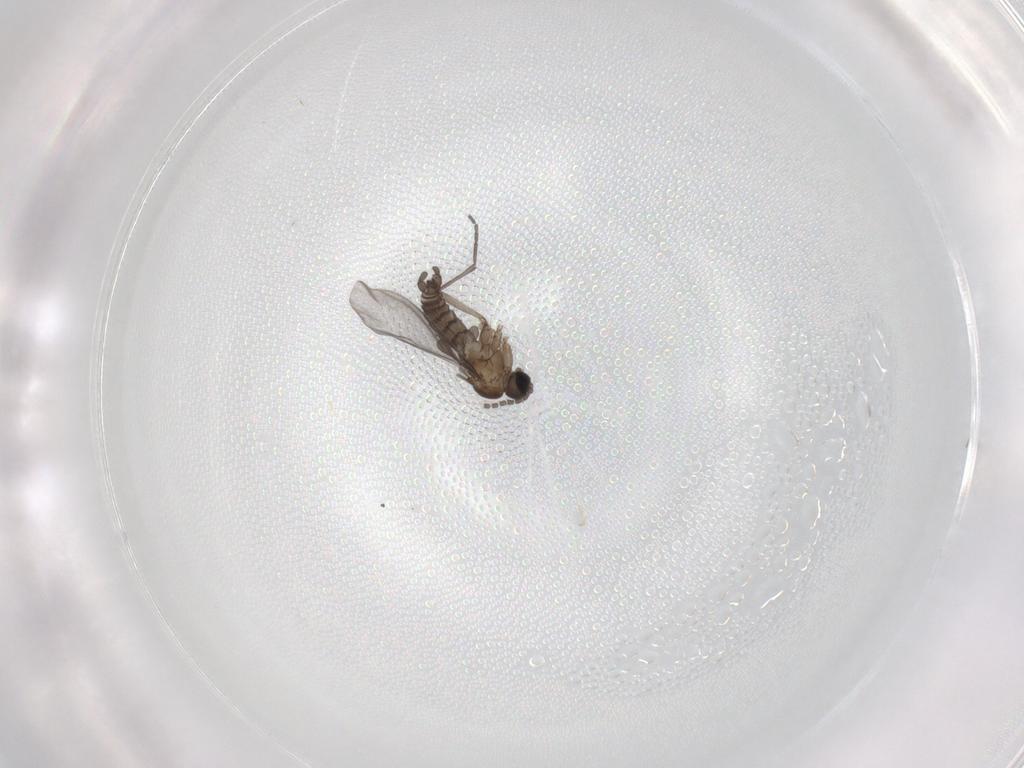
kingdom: Animalia
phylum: Arthropoda
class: Insecta
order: Diptera
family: Sciaridae
